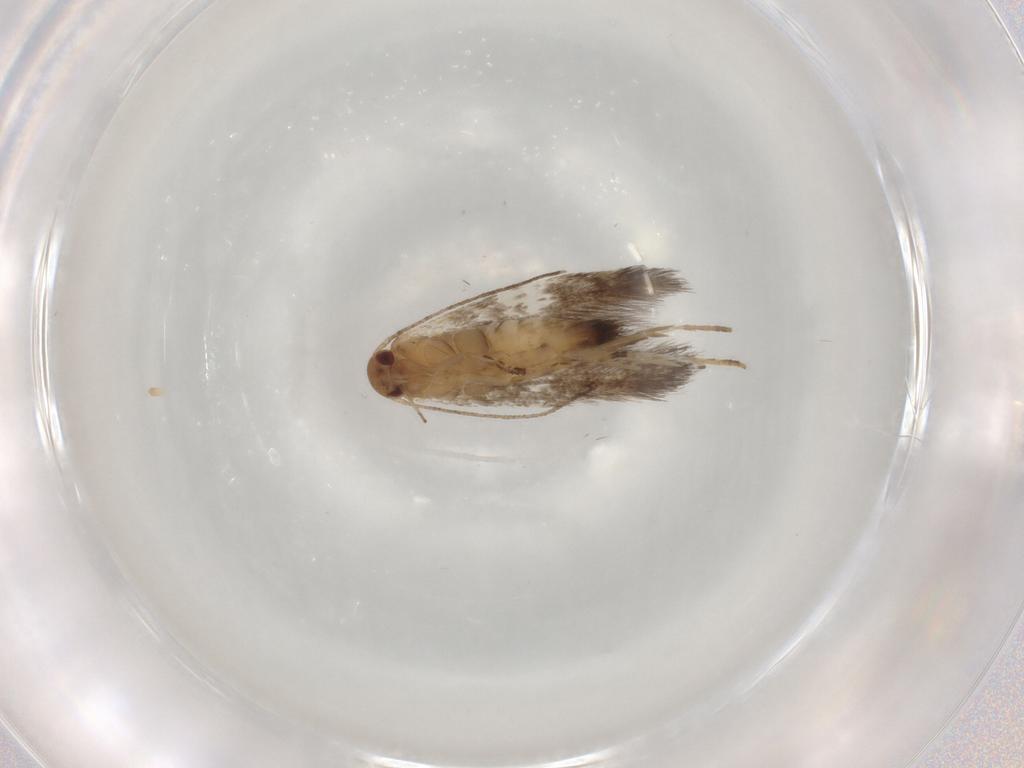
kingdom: Animalia
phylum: Arthropoda
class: Insecta
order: Lepidoptera
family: Elachistidae
